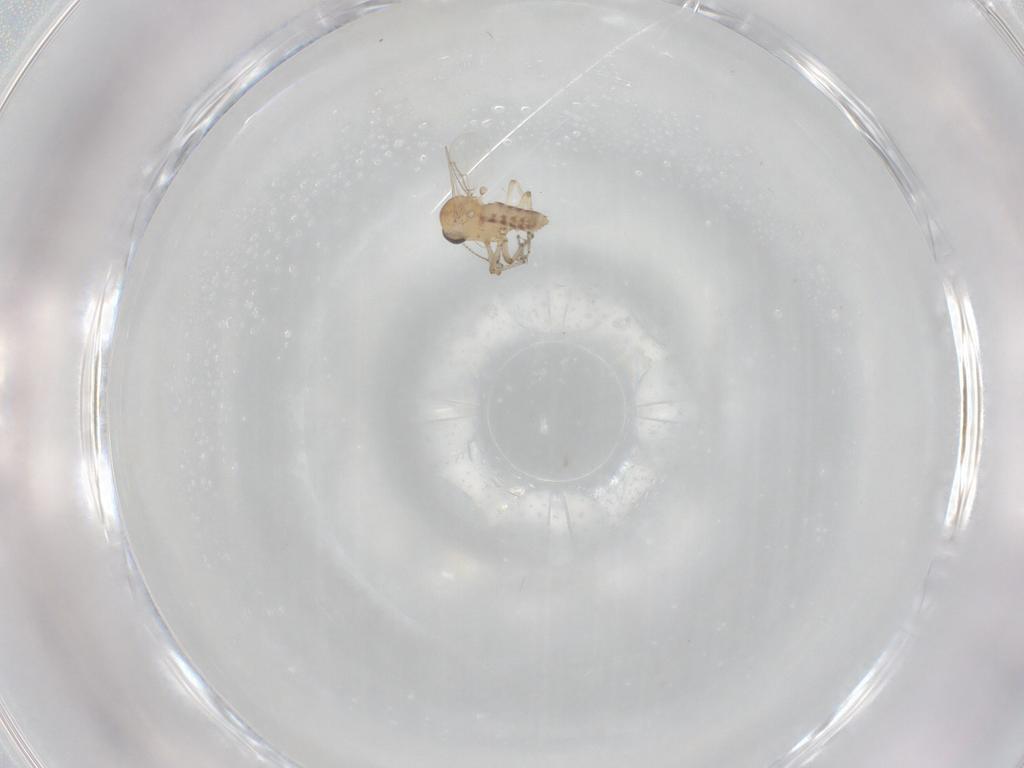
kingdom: Animalia
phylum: Arthropoda
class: Insecta
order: Diptera
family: Ceratopogonidae
